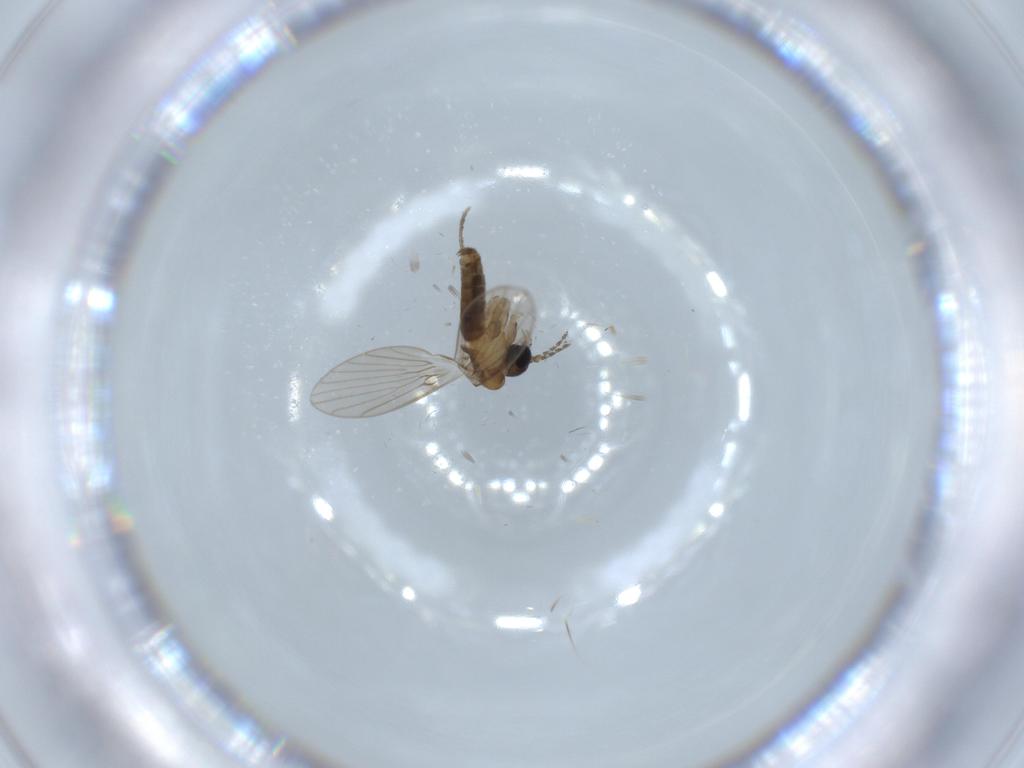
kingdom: Animalia
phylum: Arthropoda
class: Insecta
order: Diptera
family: Psychodidae
